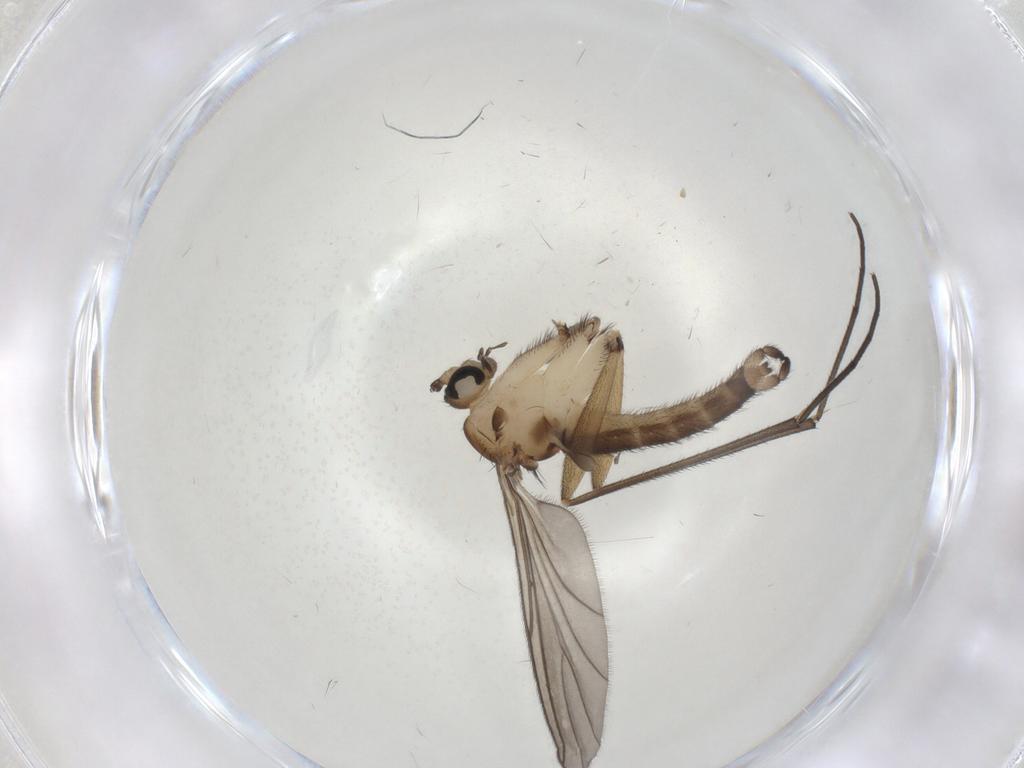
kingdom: Animalia
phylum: Arthropoda
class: Insecta
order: Diptera
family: Sciaridae
